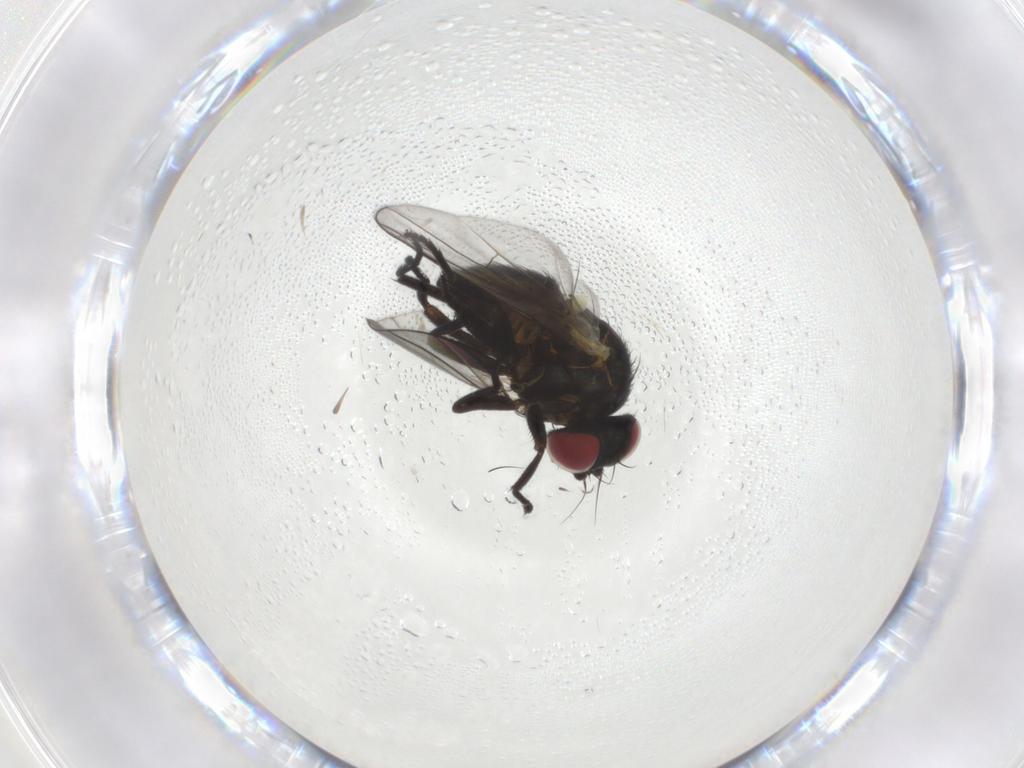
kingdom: Animalia
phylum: Arthropoda
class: Insecta
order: Diptera
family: Agromyzidae
